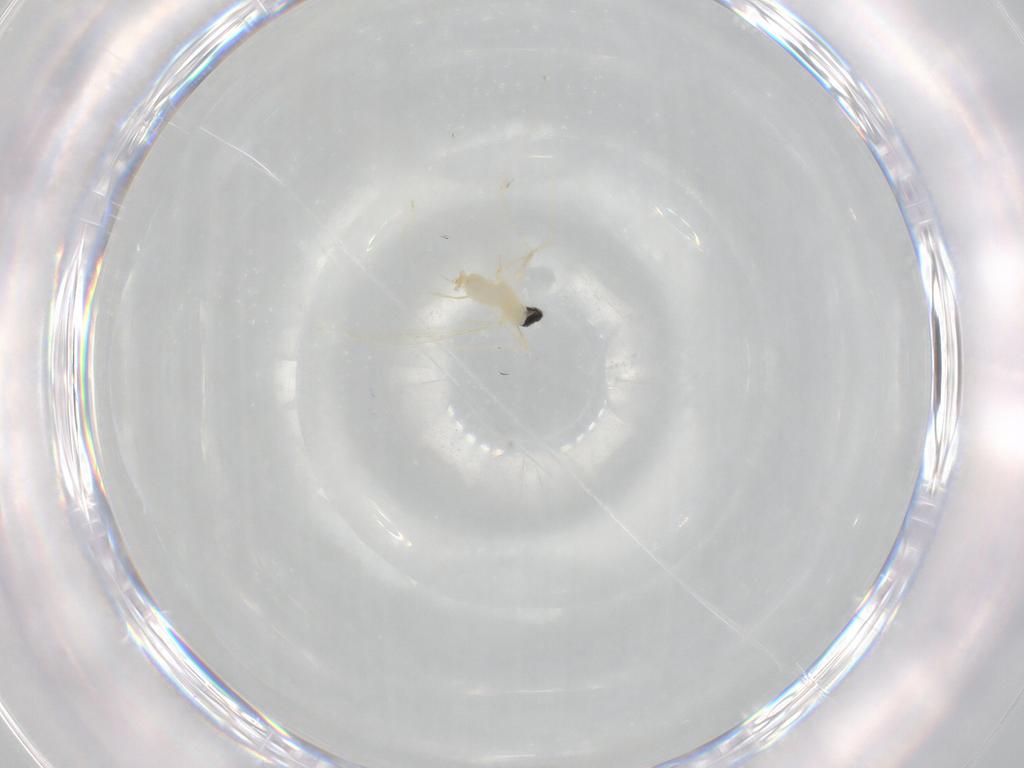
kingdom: Animalia
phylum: Arthropoda
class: Insecta
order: Diptera
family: Cecidomyiidae
